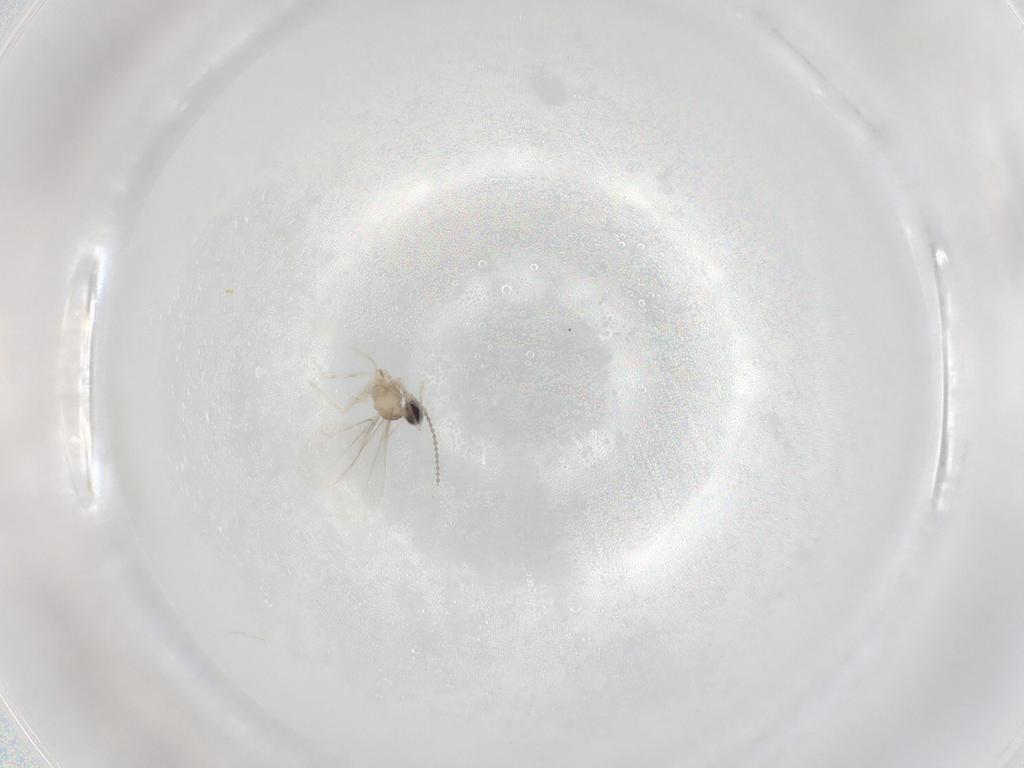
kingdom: Animalia
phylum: Arthropoda
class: Insecta
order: Diptera
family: Cecidomyiidae
